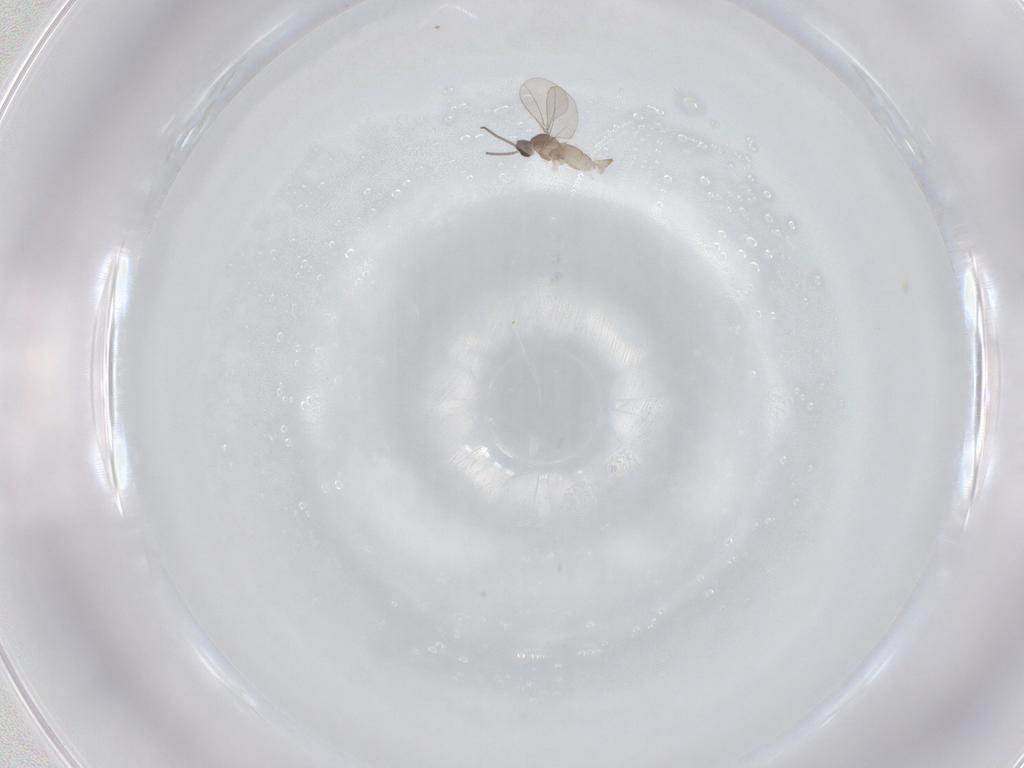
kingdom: Animalia
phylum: Arthropoda
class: Insecta
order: Diptera
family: Cecidomyiidae
